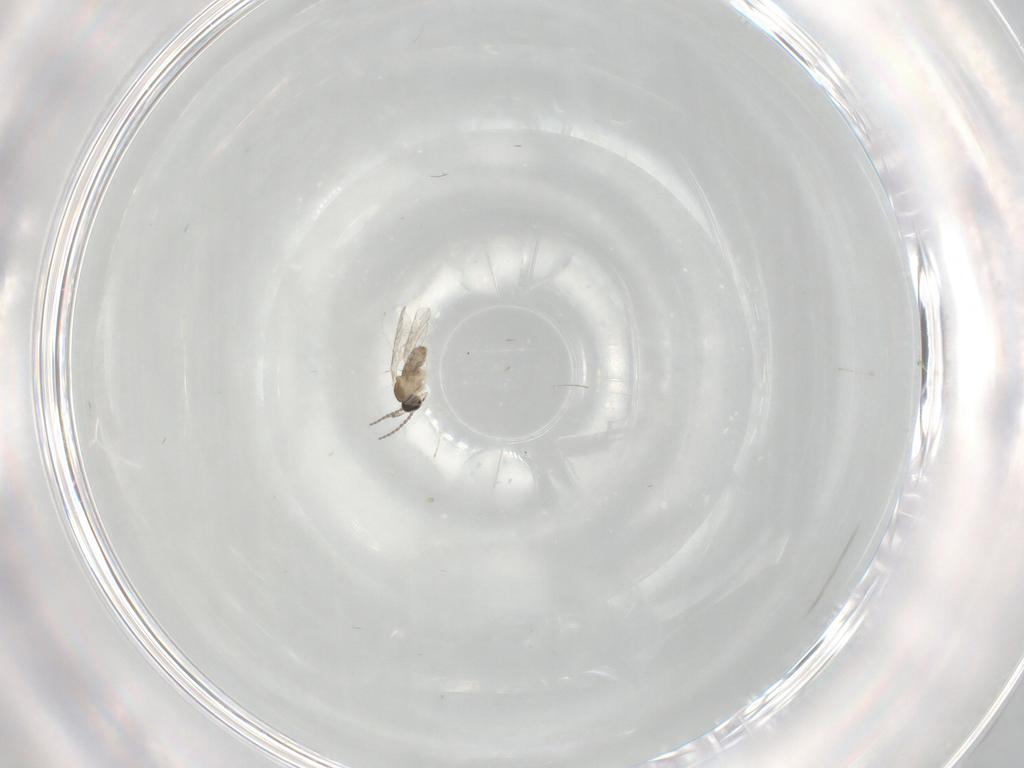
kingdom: Animalia
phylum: Arthropoda
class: Insecta
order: Diptera
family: Cecidomyiidae
